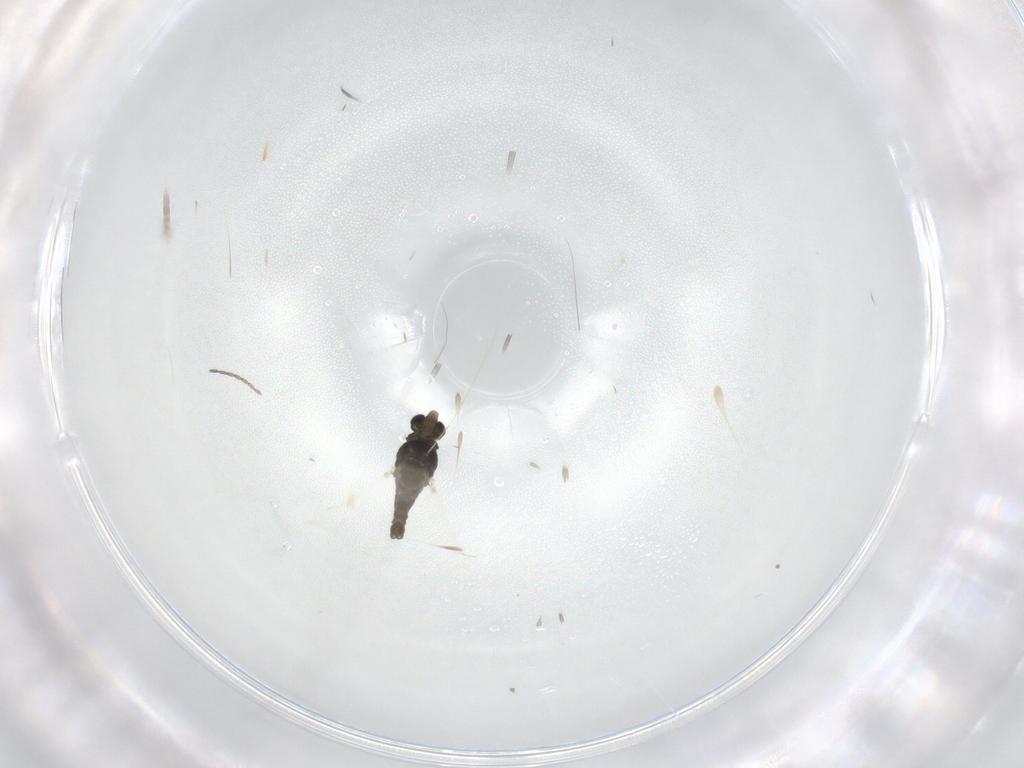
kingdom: Animalia
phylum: Arthropoda
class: Insecta
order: Diptera
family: Chironomidae
